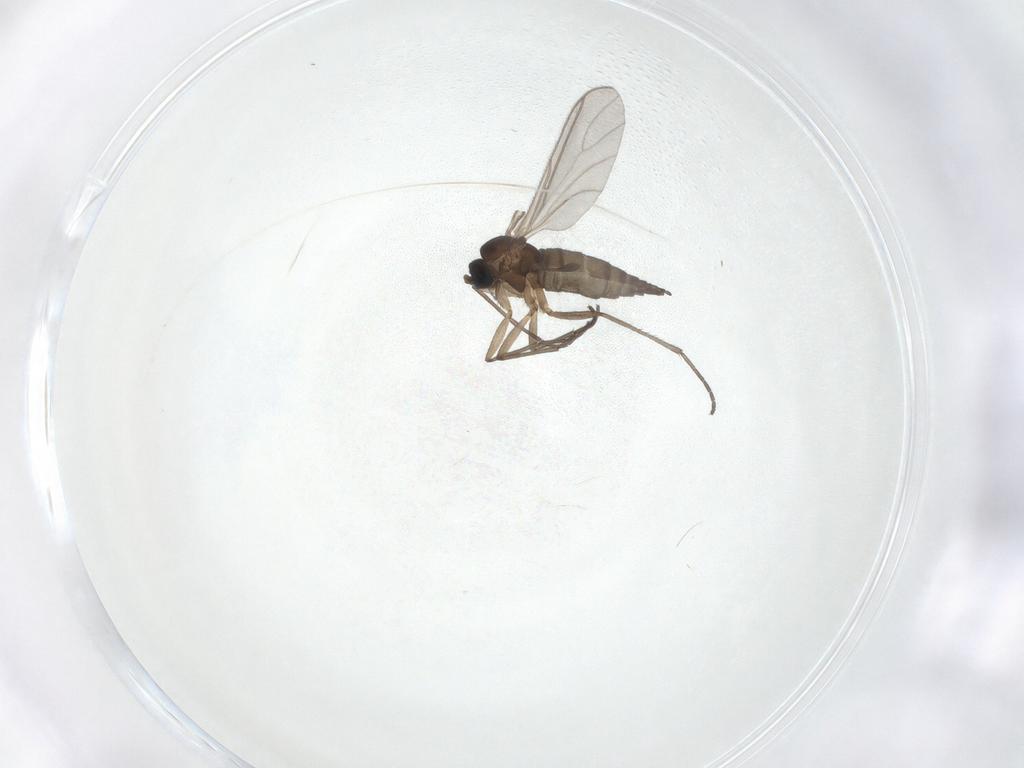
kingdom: Animalia
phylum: Arthropoda
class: Insecta
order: Diptera
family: Sciaridae
